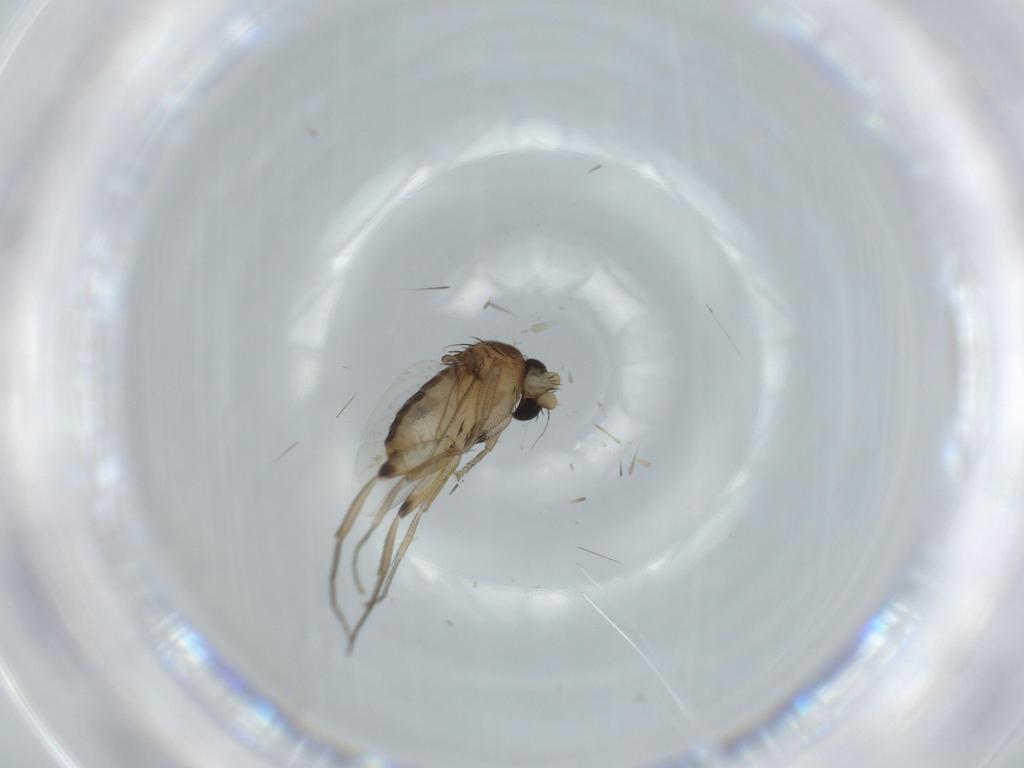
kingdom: Animalia
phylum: Arthropoda
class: Insecta
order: Diptera
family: Phoridae
